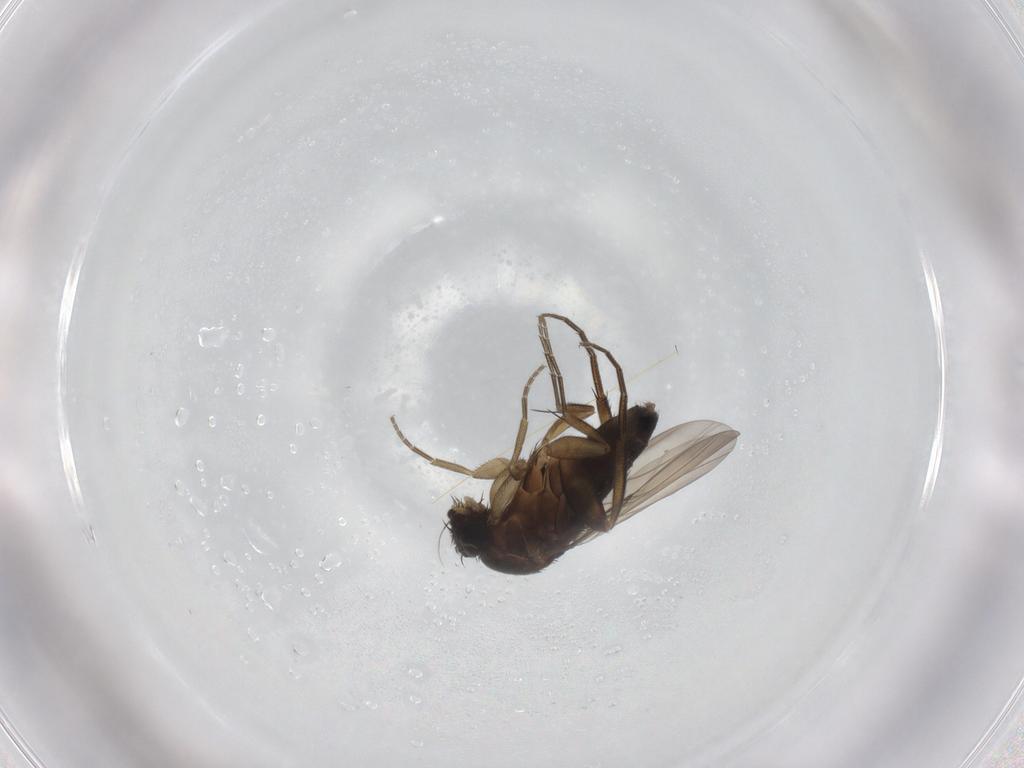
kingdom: Animalia
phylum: Arthropoda
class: Insecta
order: Diptera
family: Phoridae
